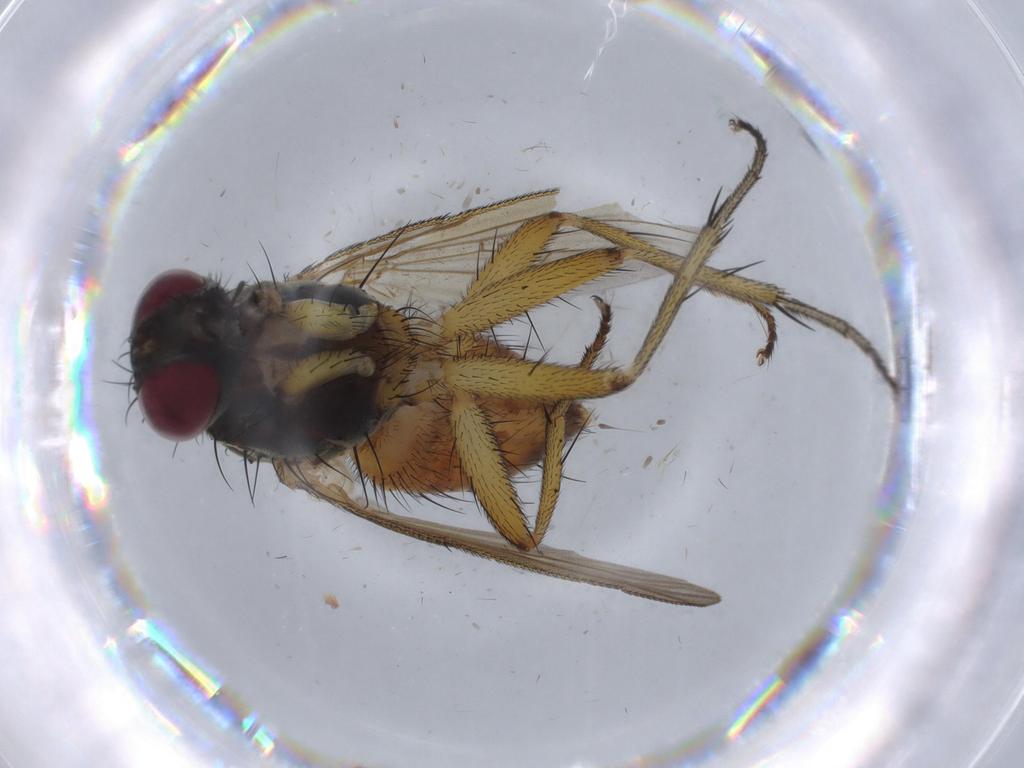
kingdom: Animalia
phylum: Arthropoda
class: Insecta
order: Diptera
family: Muscidae
